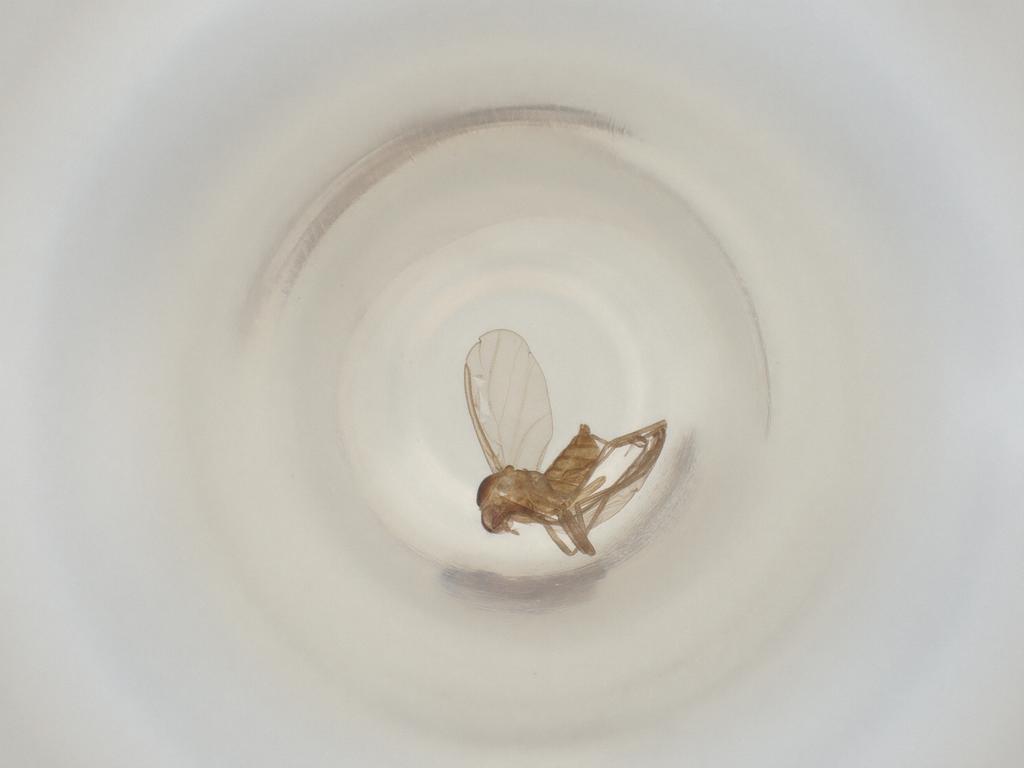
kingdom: Animalia
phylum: Arthropoda
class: Insecta
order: Diptera
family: Cecidomyiidae
